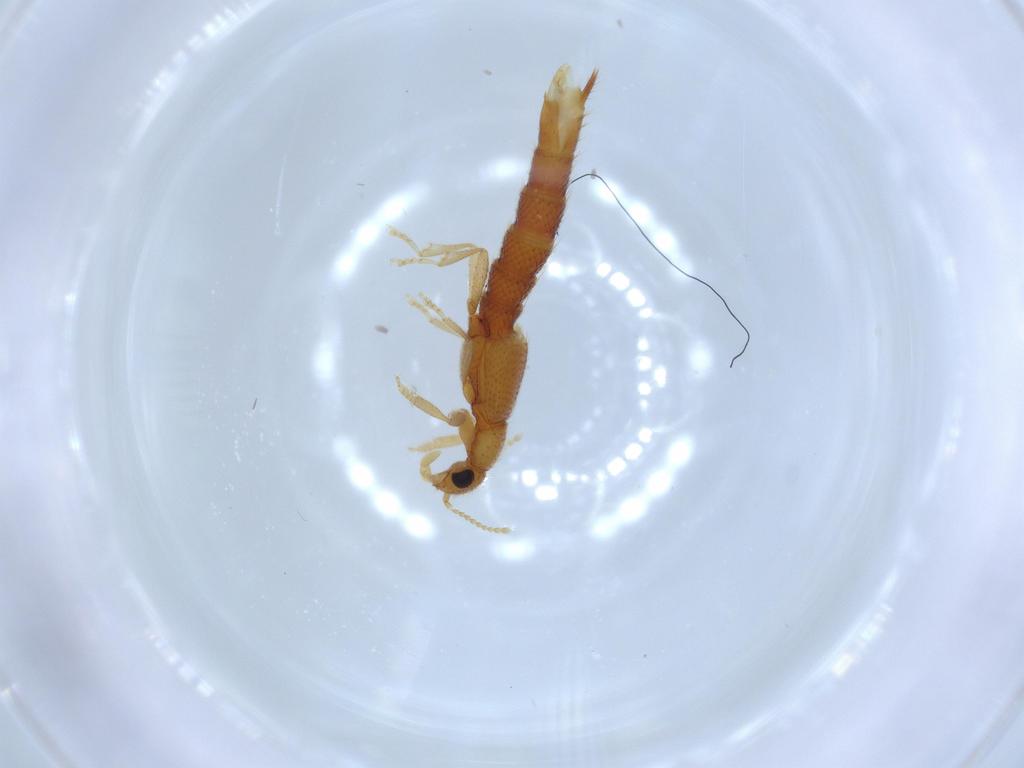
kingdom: Animalia
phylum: Arthropoda
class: Insecta
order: Coleoptera
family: Staphylinidae
